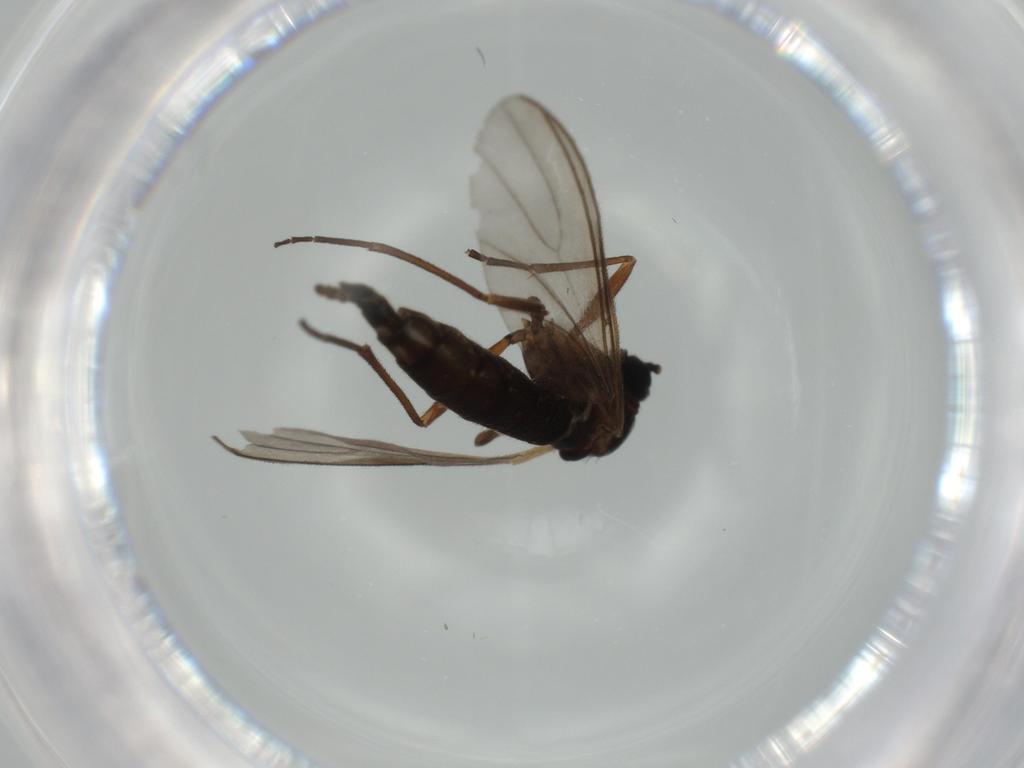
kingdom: Animalia
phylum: Arthropoda
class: Insecta
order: Diptera
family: Sciaridae
